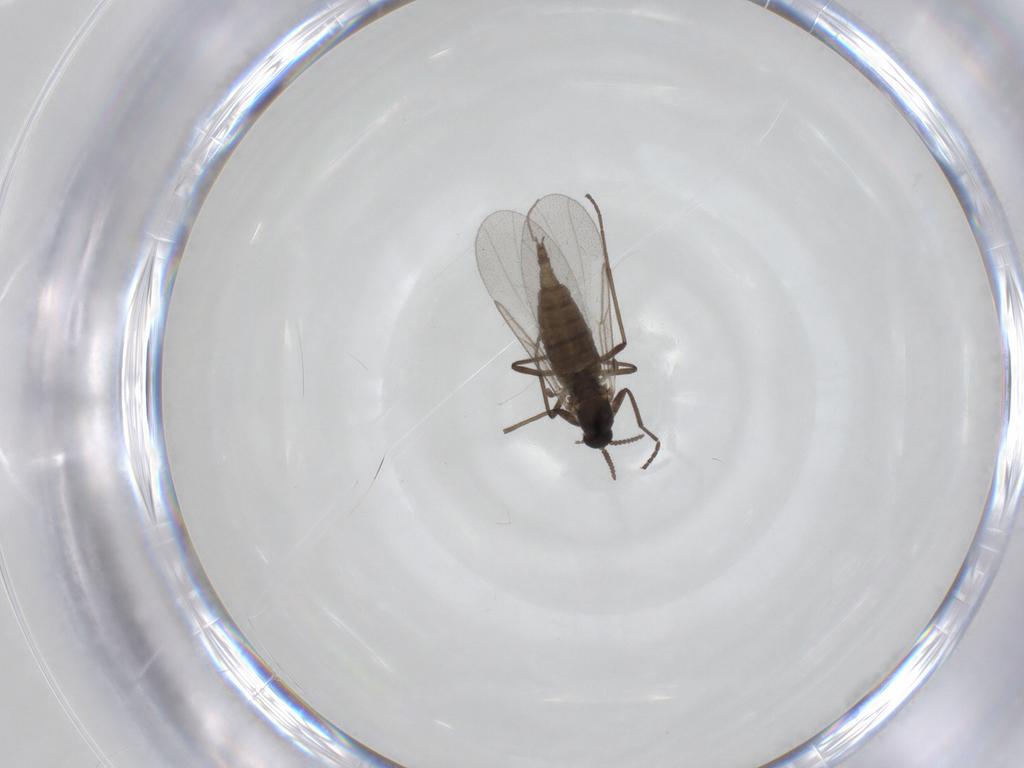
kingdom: Animalia
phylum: Arthropoda
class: Insecta
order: Diptera
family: Cecidomyiidae
